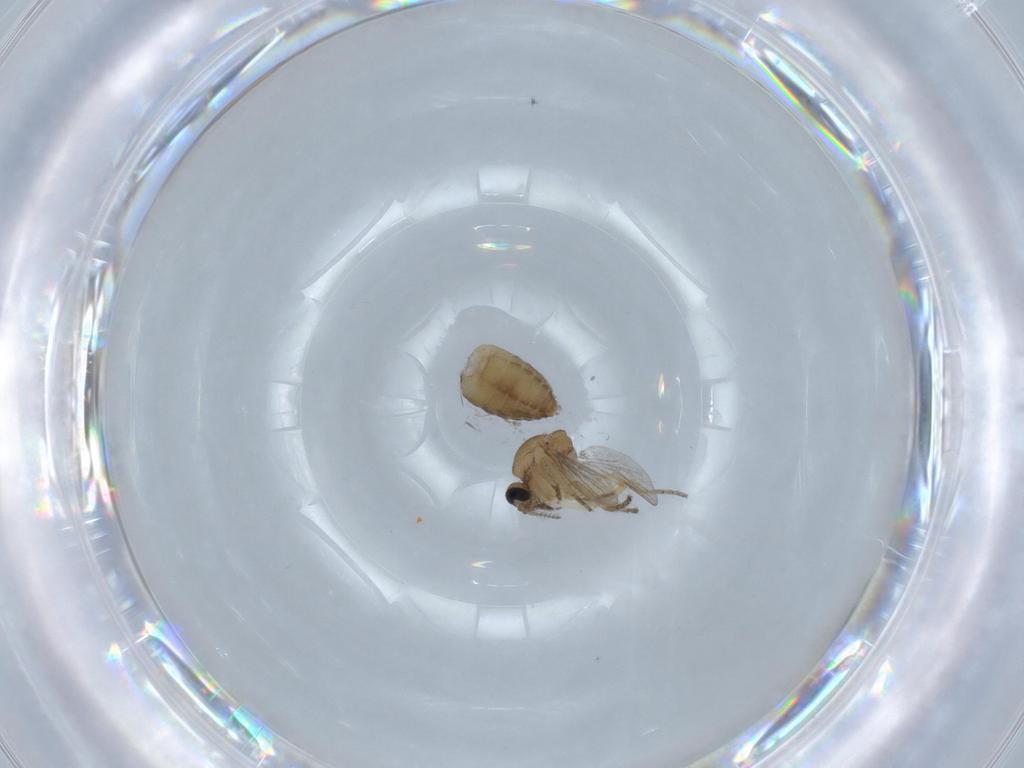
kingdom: Animalia
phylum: Arthropoda
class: Insecta
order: Diptera
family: Ceratopogonidae
